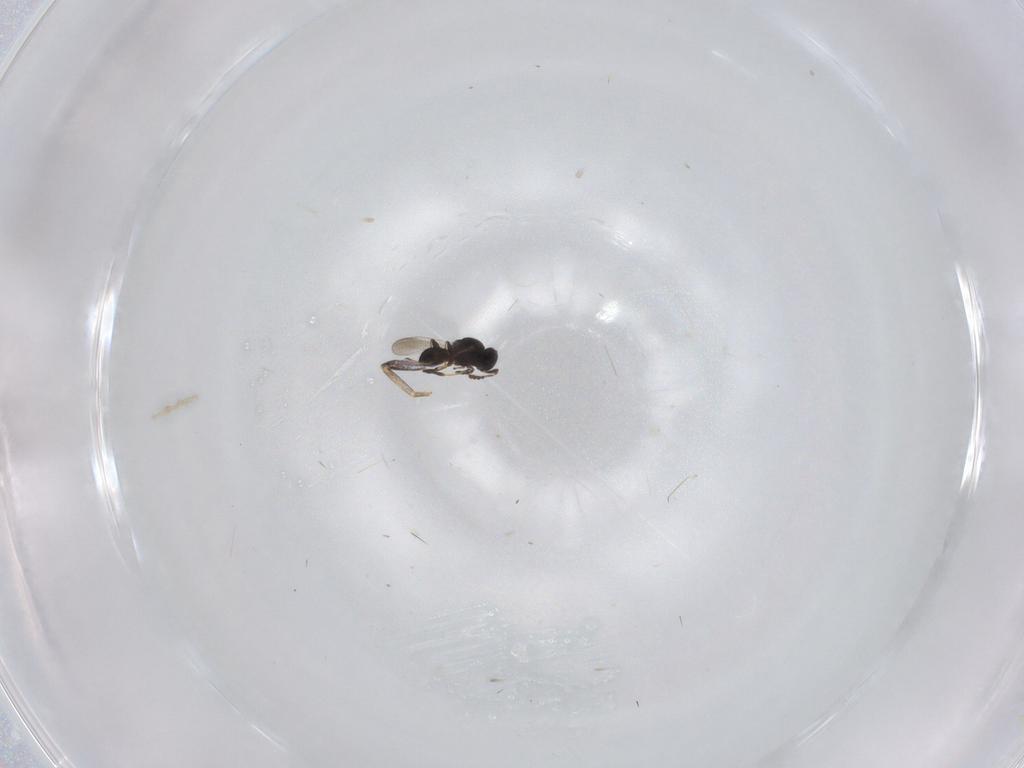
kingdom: Animalia
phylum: Arthropoda
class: Insecta
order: Hymenoptera
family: Platygastridae
